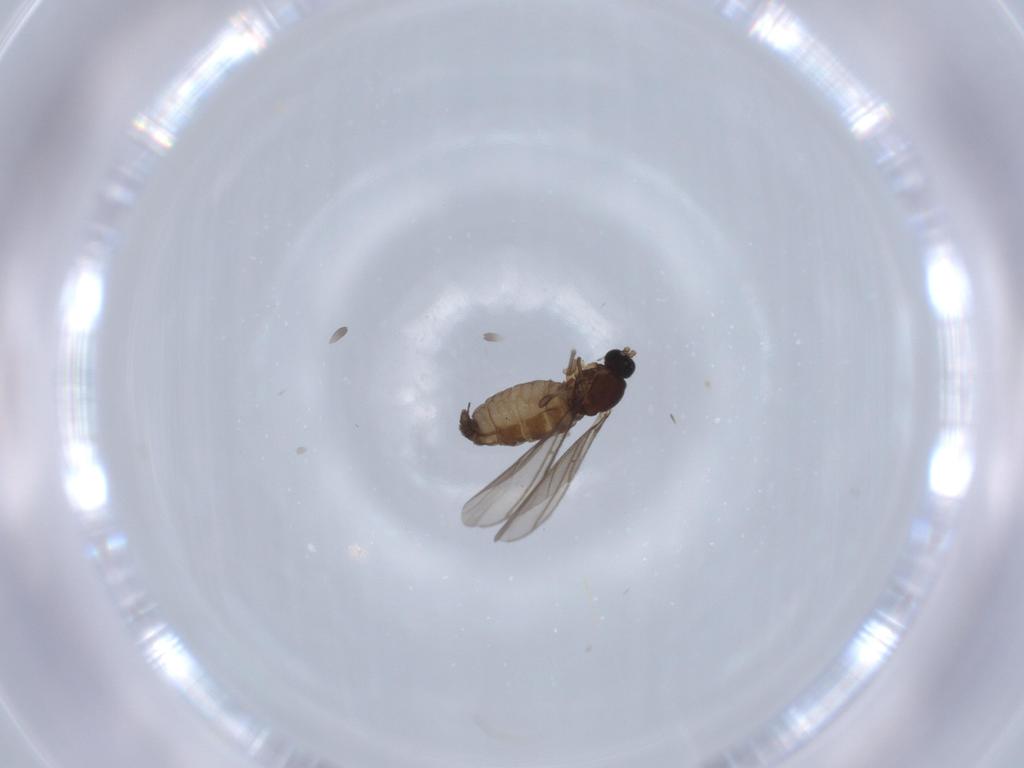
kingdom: Animalia
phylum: Arthropoda
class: Insecta
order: Diptera
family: Sciaridae
